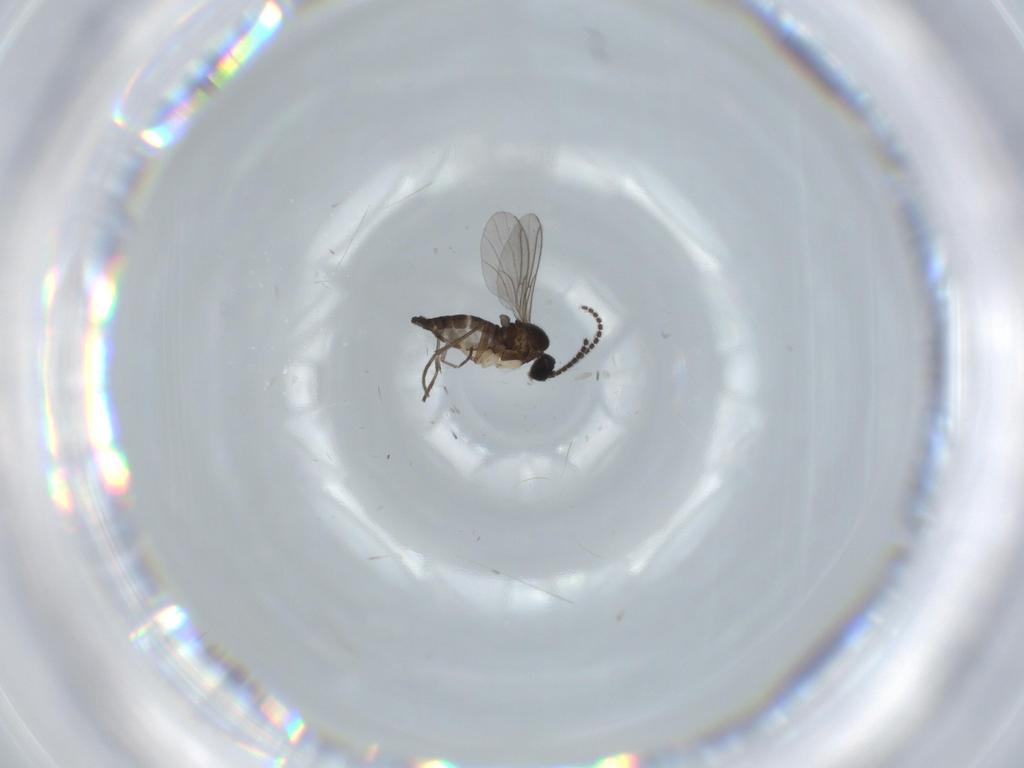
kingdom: Animalia
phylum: Arthropoda
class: Insecta
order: Diptera
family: Sciaridae
